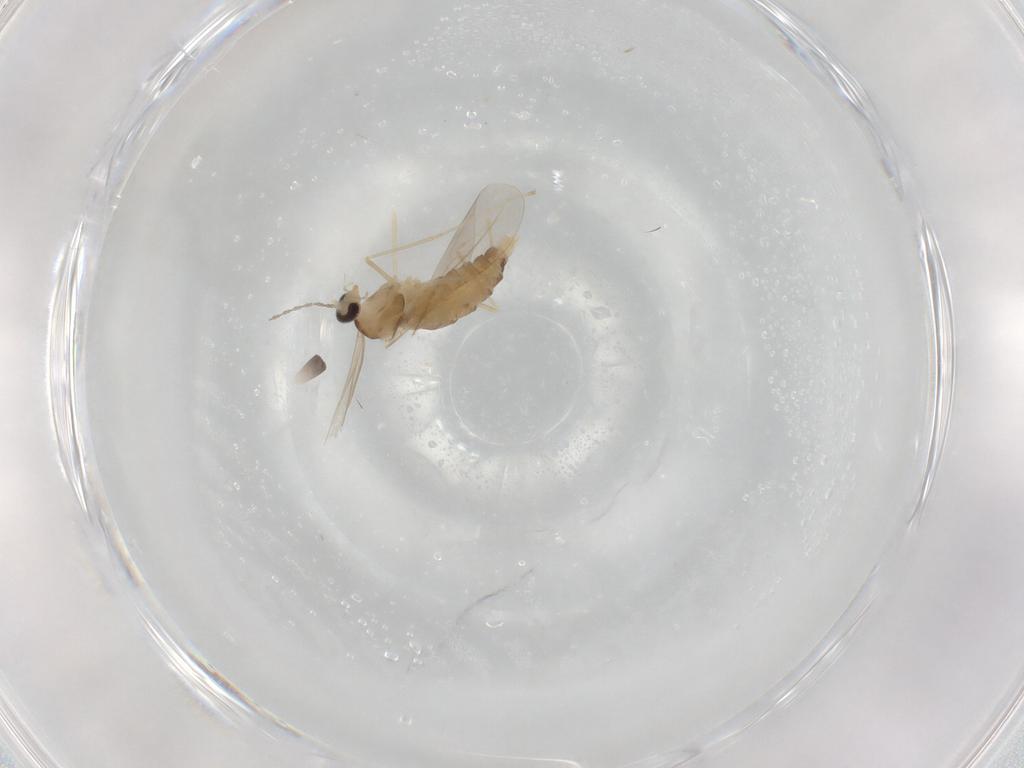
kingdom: Animalia
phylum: Arthropoda
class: Insecta
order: Diptera
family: Cecidomyiidae
